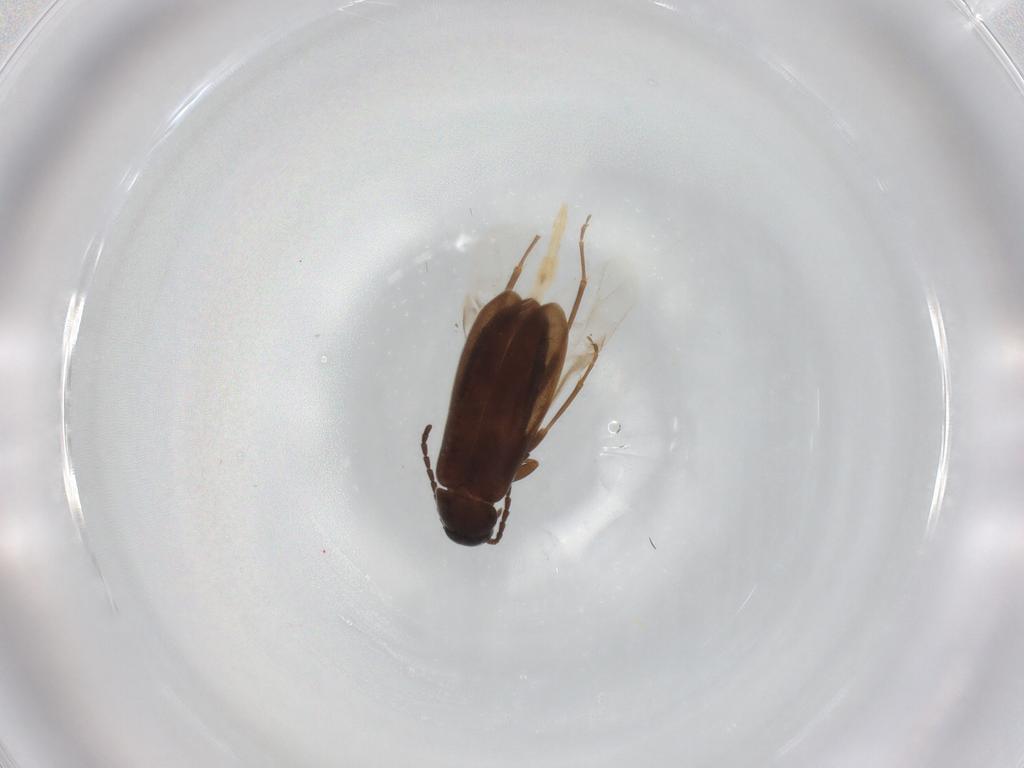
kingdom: Animalia
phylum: Arthropoda
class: Insecta
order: Coleoptera
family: Scraptiidae
